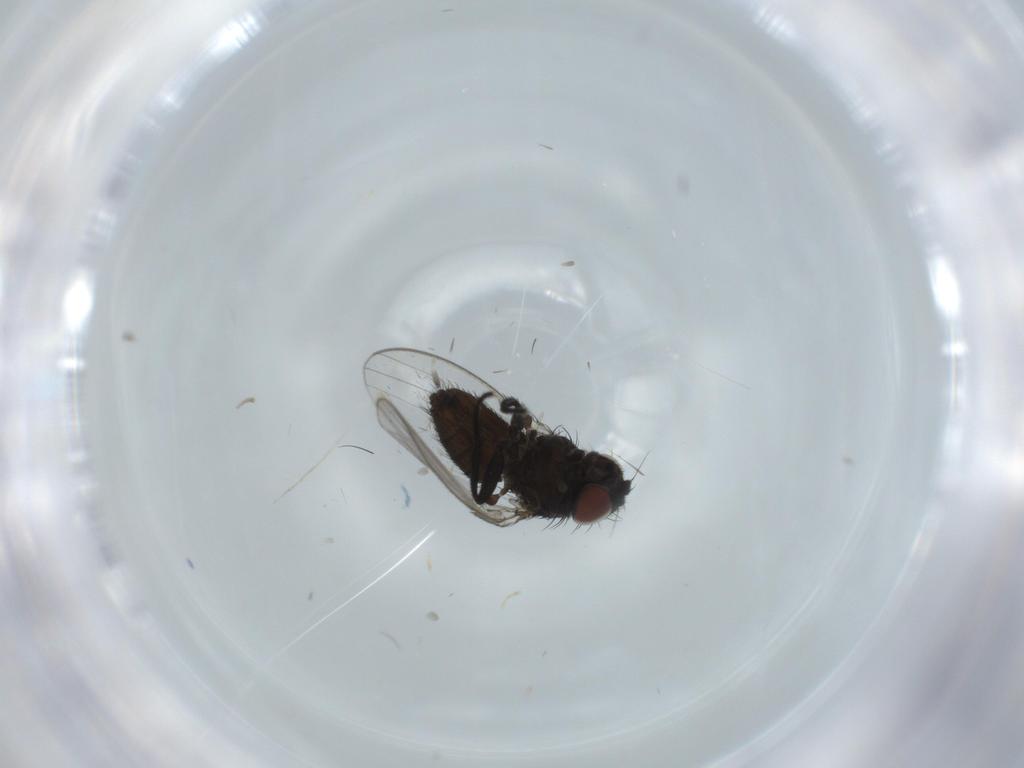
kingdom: Animalia
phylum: Arthropoda
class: Insecta
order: Diptera
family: Milichiidae
